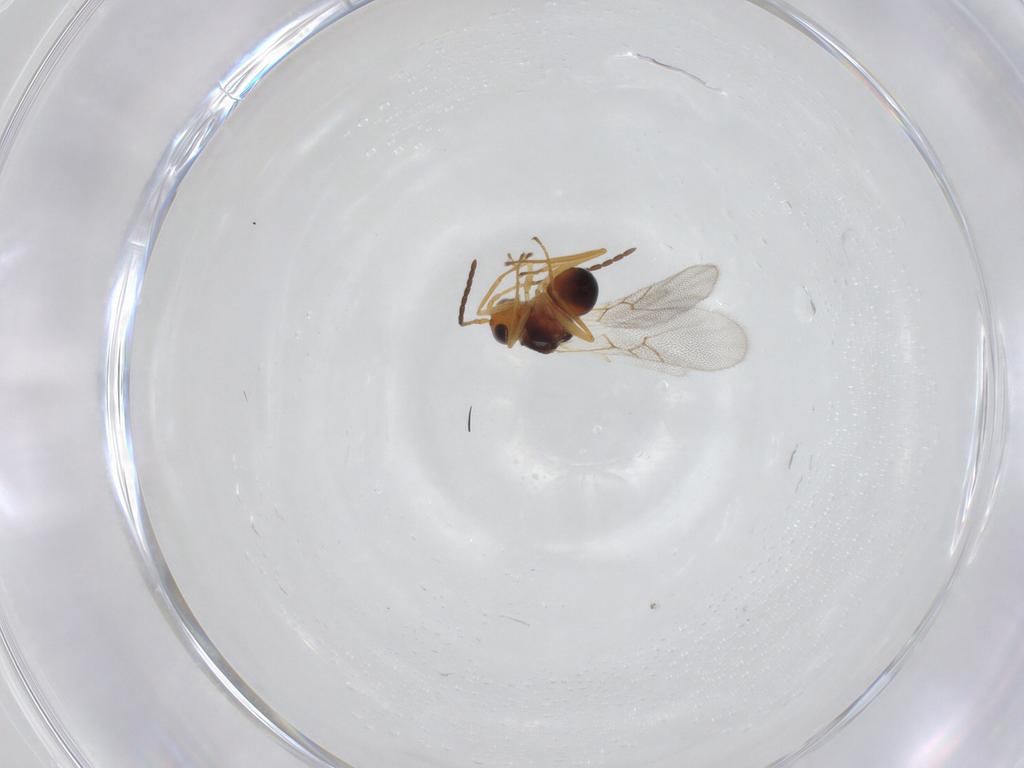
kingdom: Animalia
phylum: Arthropoda
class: Insecta
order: Hymenoptera
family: Figitidae
